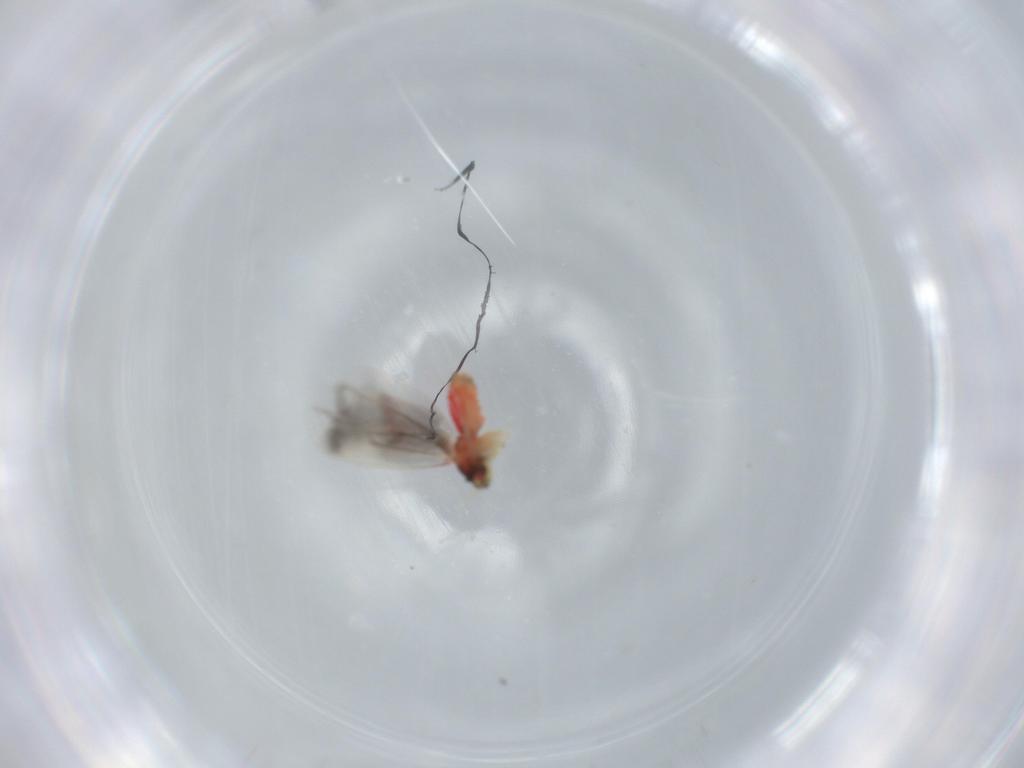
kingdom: Animalia
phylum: Arthropoda
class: Insecta
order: Hemiptera
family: Aleyrodidae
